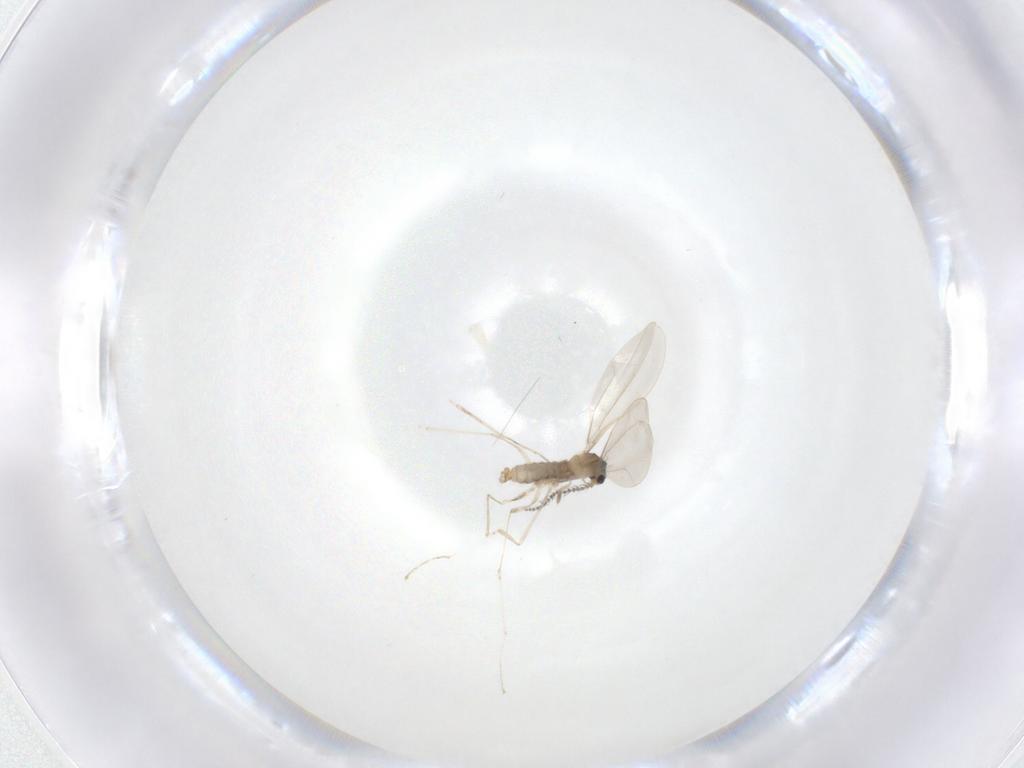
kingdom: Animalia
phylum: Arthropoda
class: Insecta
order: Diptera
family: Cecidomyiidae
